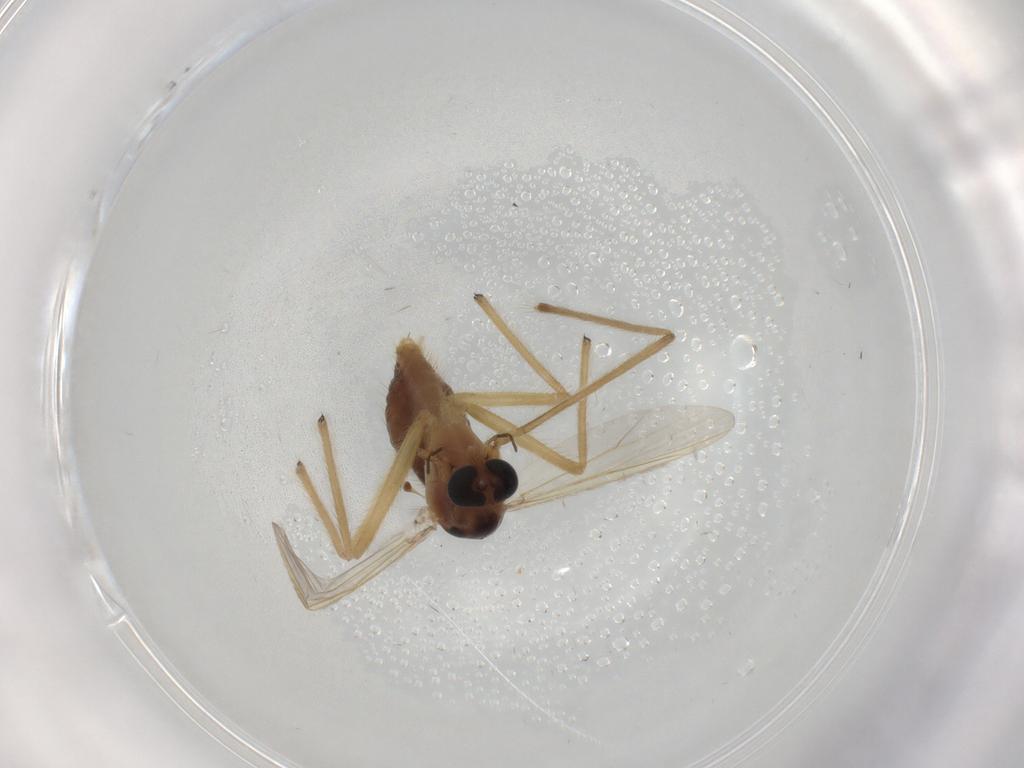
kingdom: Animalia
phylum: Arthropoda
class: Insecta
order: Diptera
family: Chironomidae
